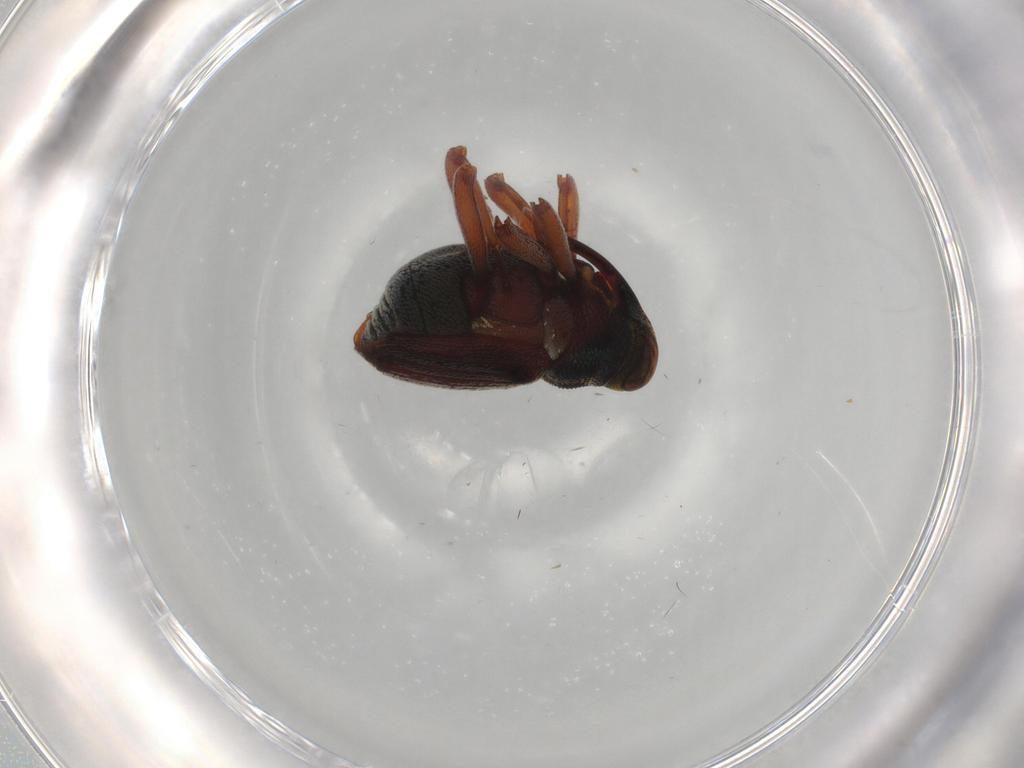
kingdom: Animalia
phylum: Arthropoda
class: Insecta
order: Coleoptera
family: Curculionidae
